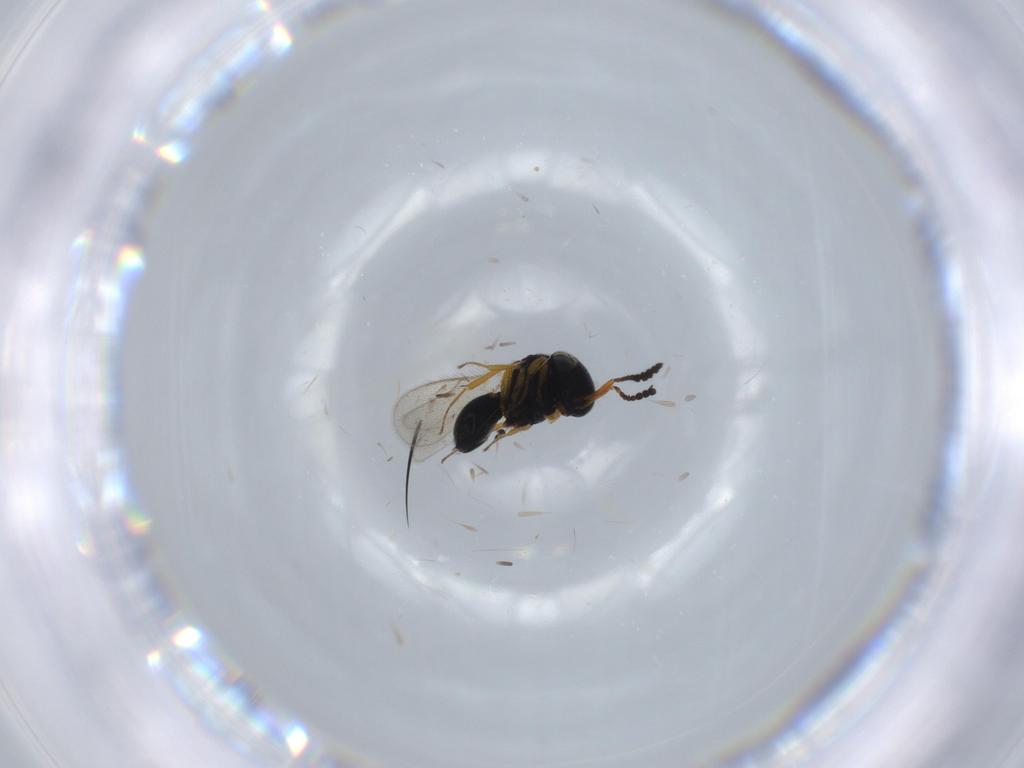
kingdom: Animalia
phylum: Arthropoda
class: Insecta
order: Hymenoptera
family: Scelionidae
